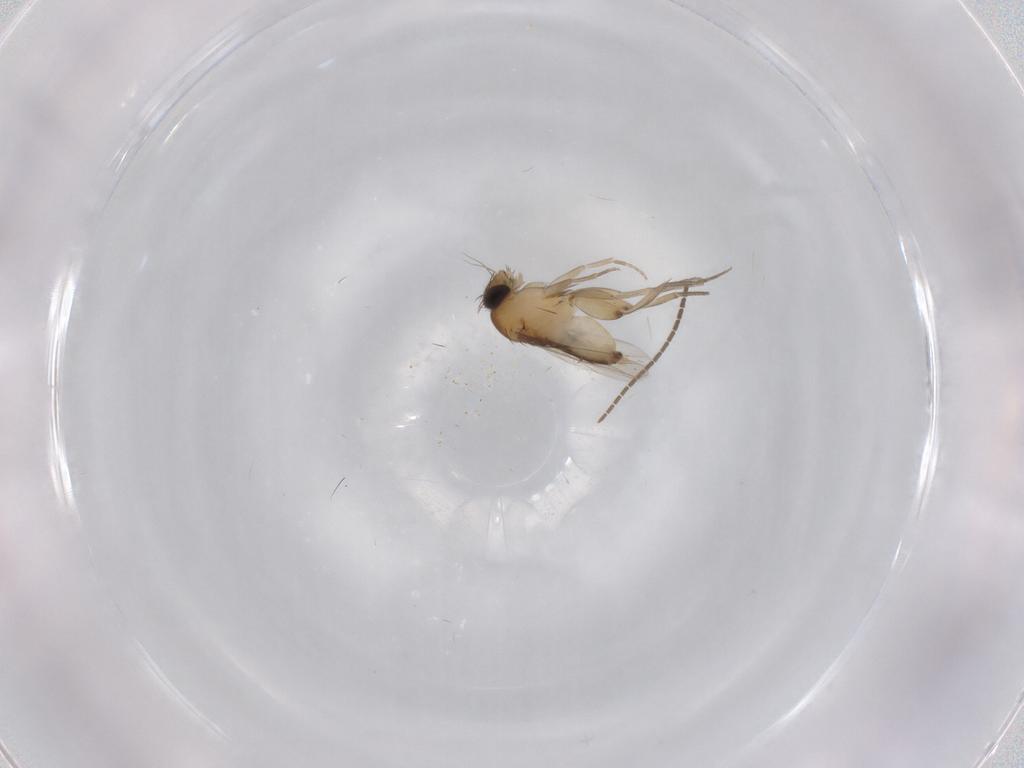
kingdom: Animalia
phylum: Arthropoda
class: Insecta
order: Diptera
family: Phoridae
